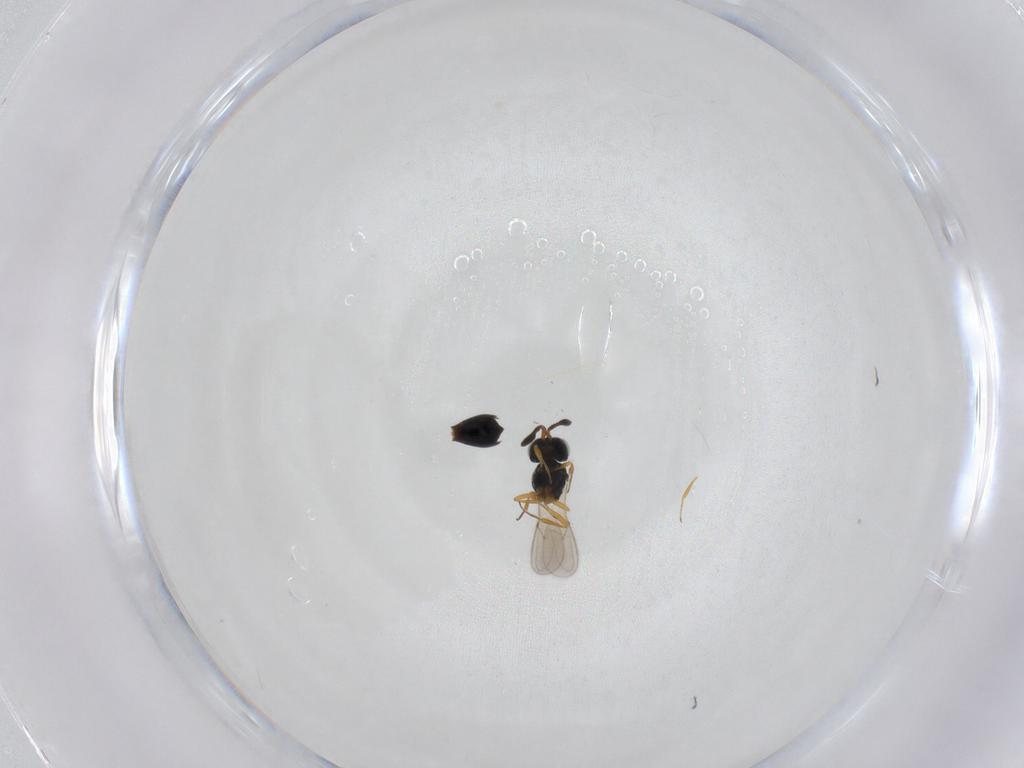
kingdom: Animalia
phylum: Arthropoda
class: Insecta
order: Hymenoptera
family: Scelionidae
